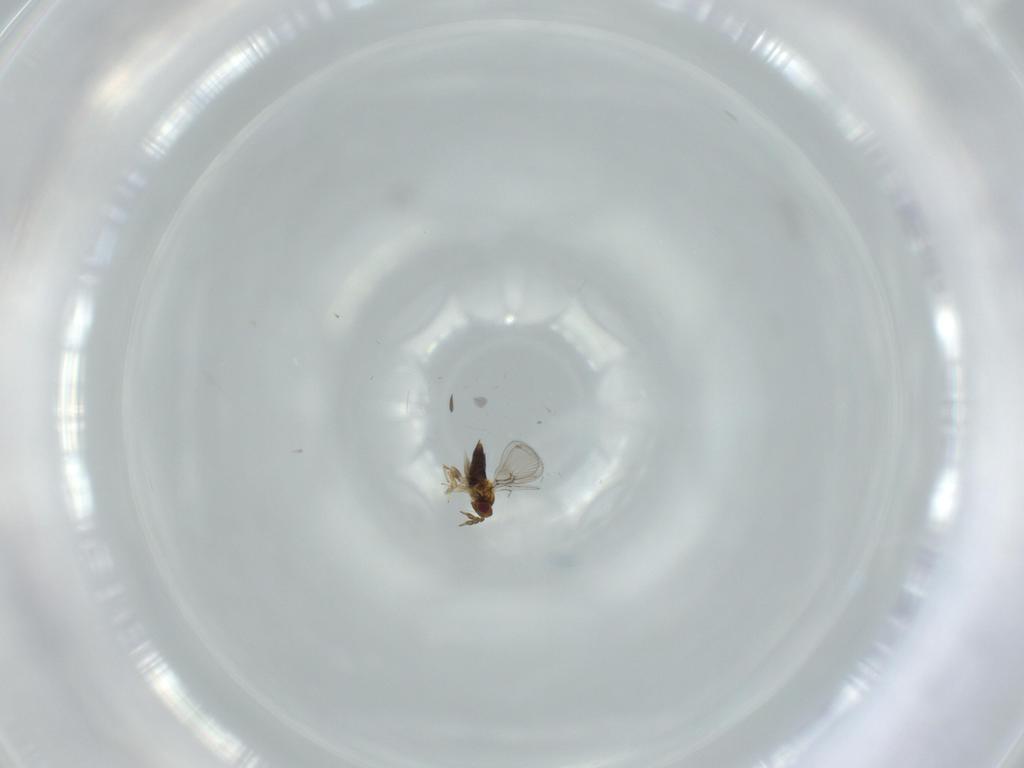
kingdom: Animalia
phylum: Arthropoda
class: Insecta
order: Hymenoptera
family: Trichogrammatidae
